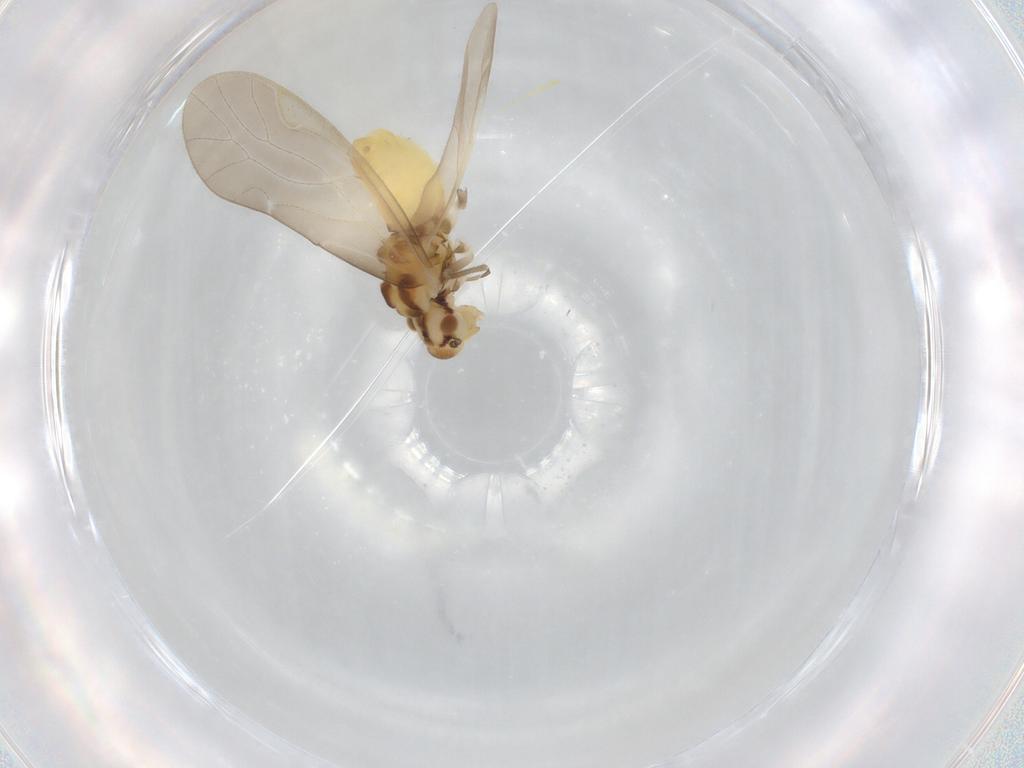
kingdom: Animalia
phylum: Arthropoda
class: Insecta
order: Psocodea
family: Caeciliusidae
